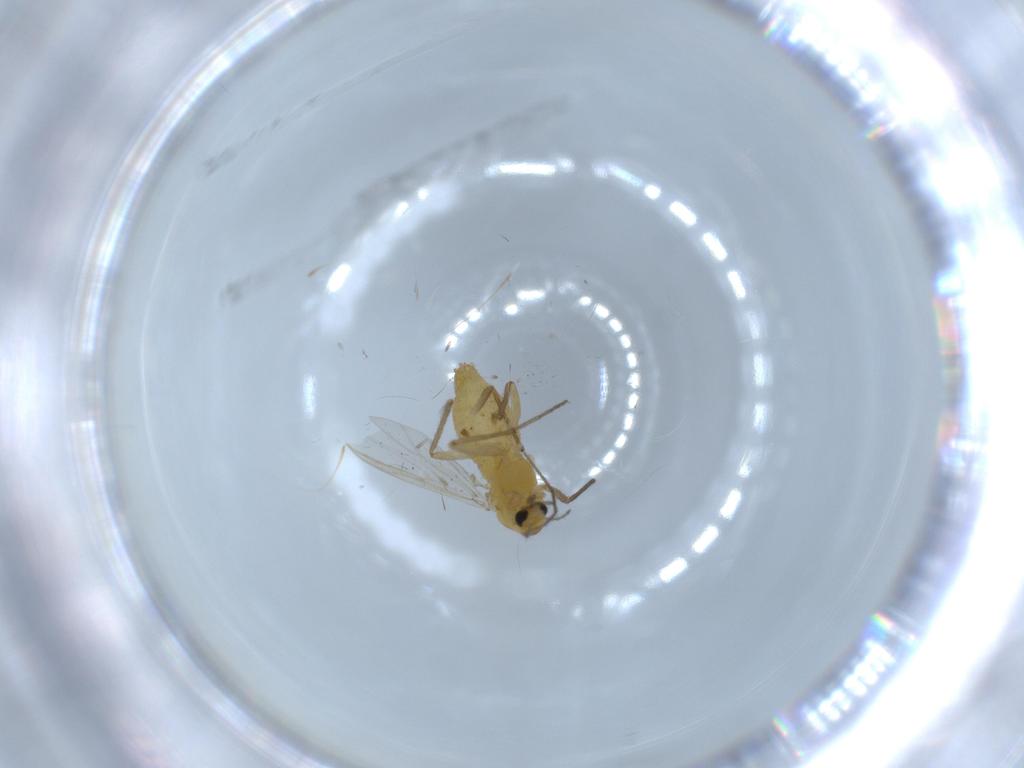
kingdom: Animalia
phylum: Arthropoda
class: Insecta
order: Diptera
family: Chironomidae
